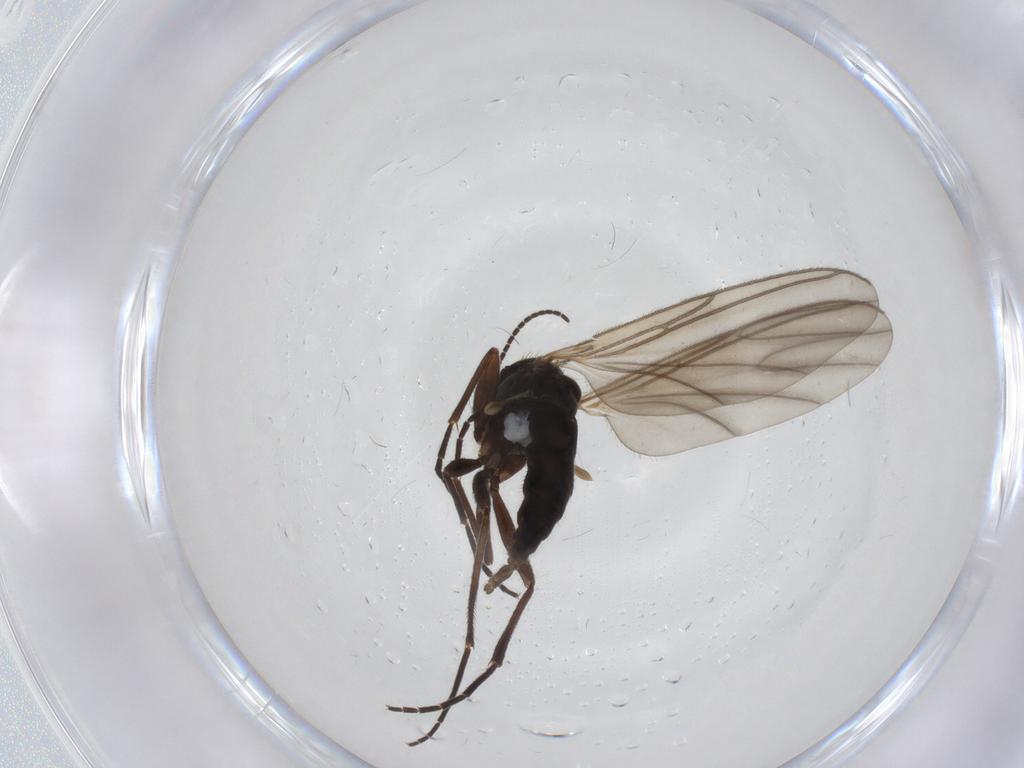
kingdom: Animalia
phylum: Arthropoda
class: Insecta
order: Diptera
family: Sciaridae
